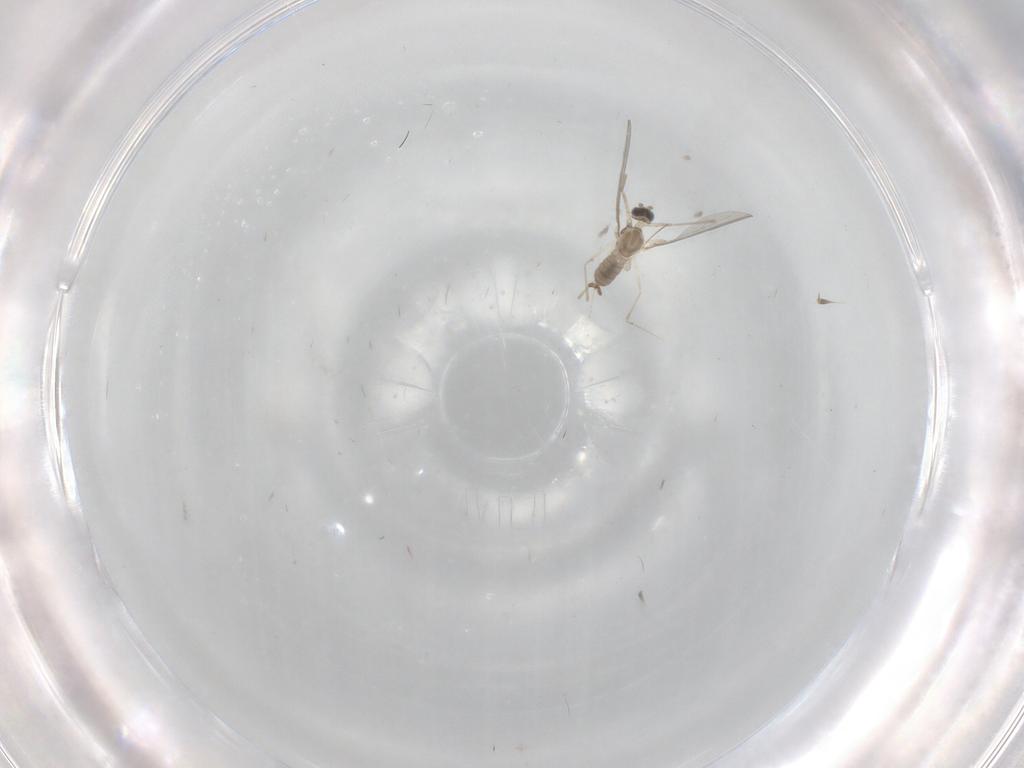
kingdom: Animalia
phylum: Arthropoda
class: Insecta
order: Diptera
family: Cecidomyiidae
